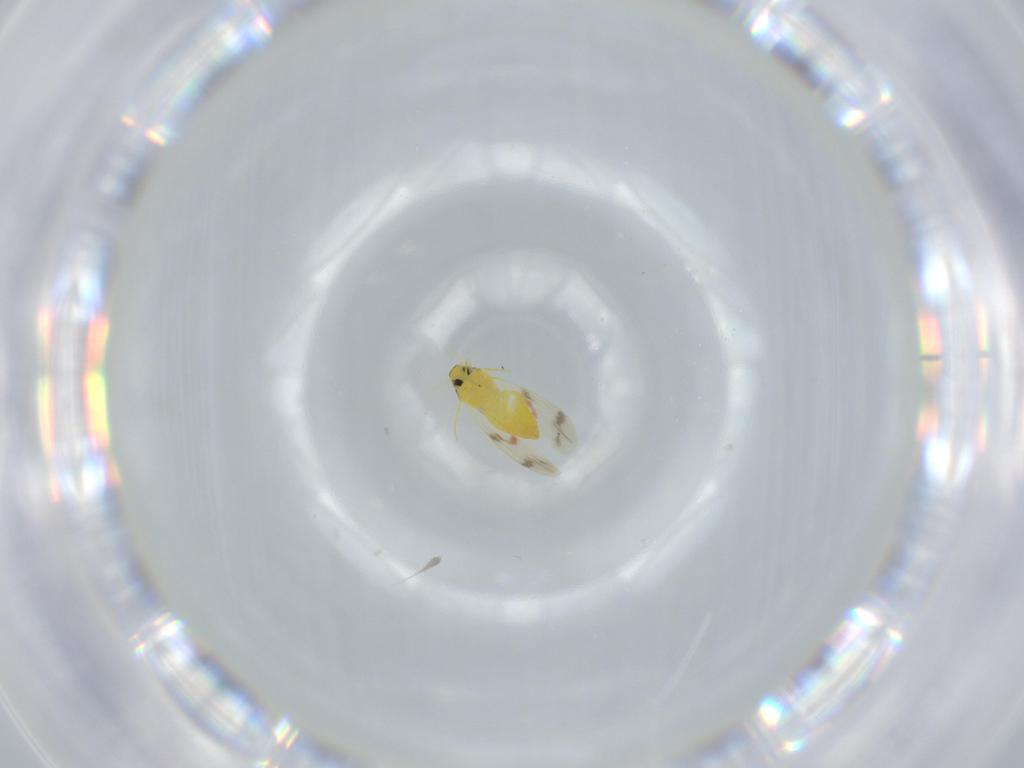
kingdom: Animalia
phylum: Arthropoda
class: Insecta
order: Hemiptera
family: Aleyrodidae
